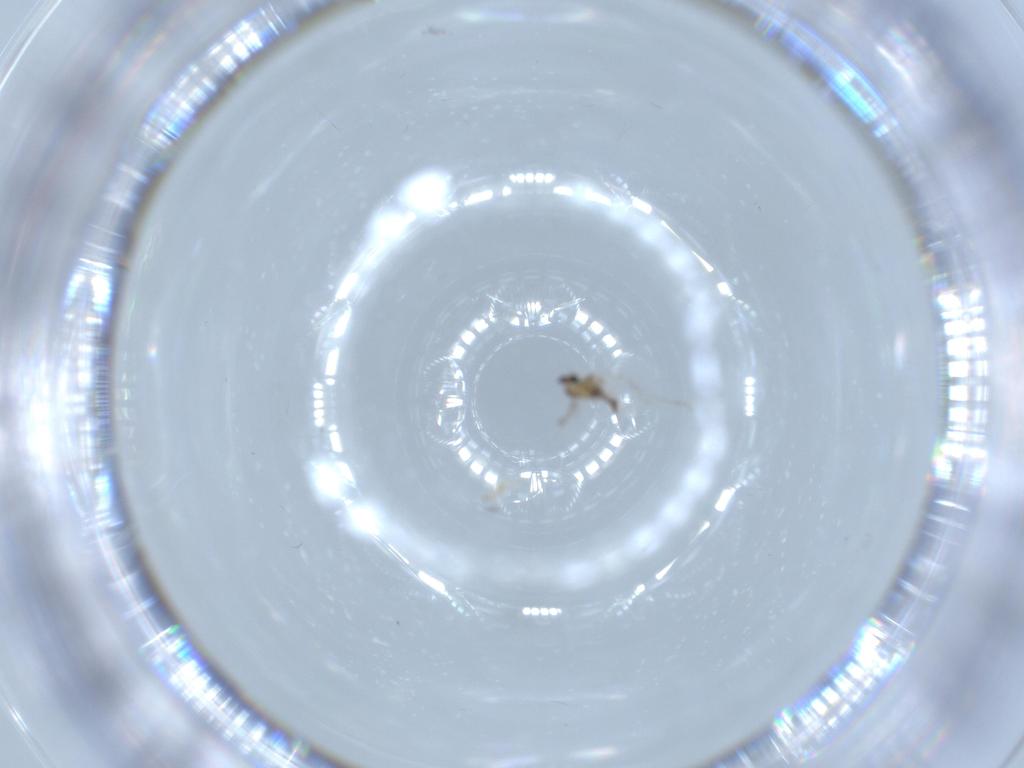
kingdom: Animalia
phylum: Arthropoda
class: Insecta
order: Diptera
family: Cecidomyiidae
